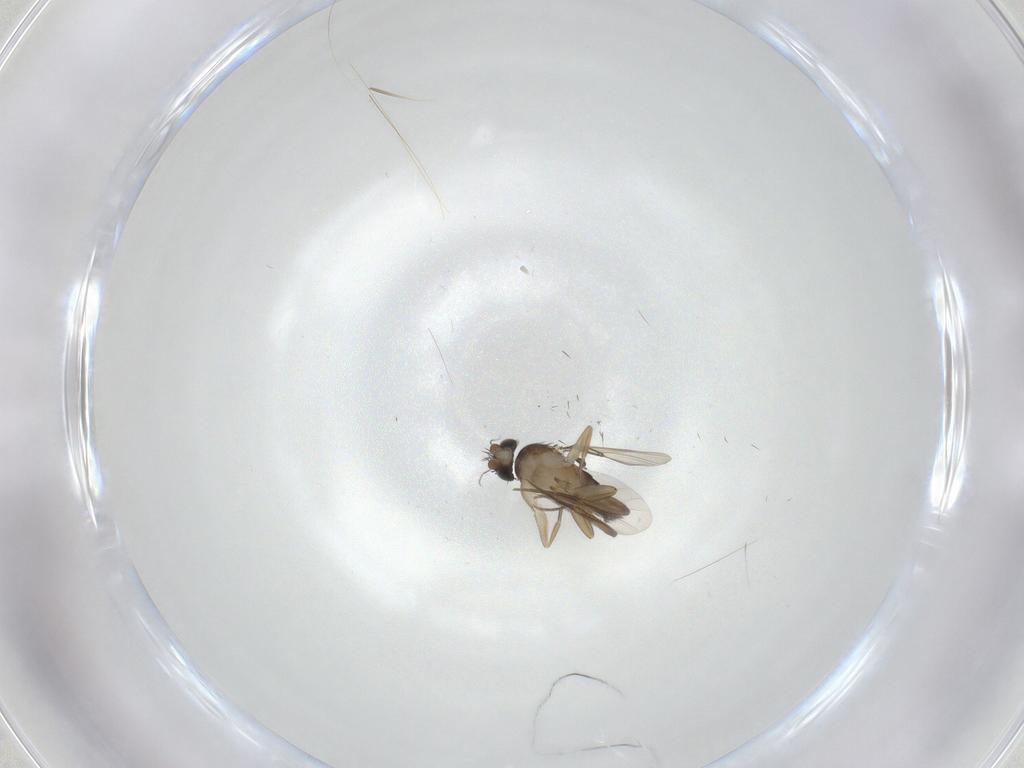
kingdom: Animalia
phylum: Arthropoda
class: Insecta
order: Diptera
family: Phoridae
